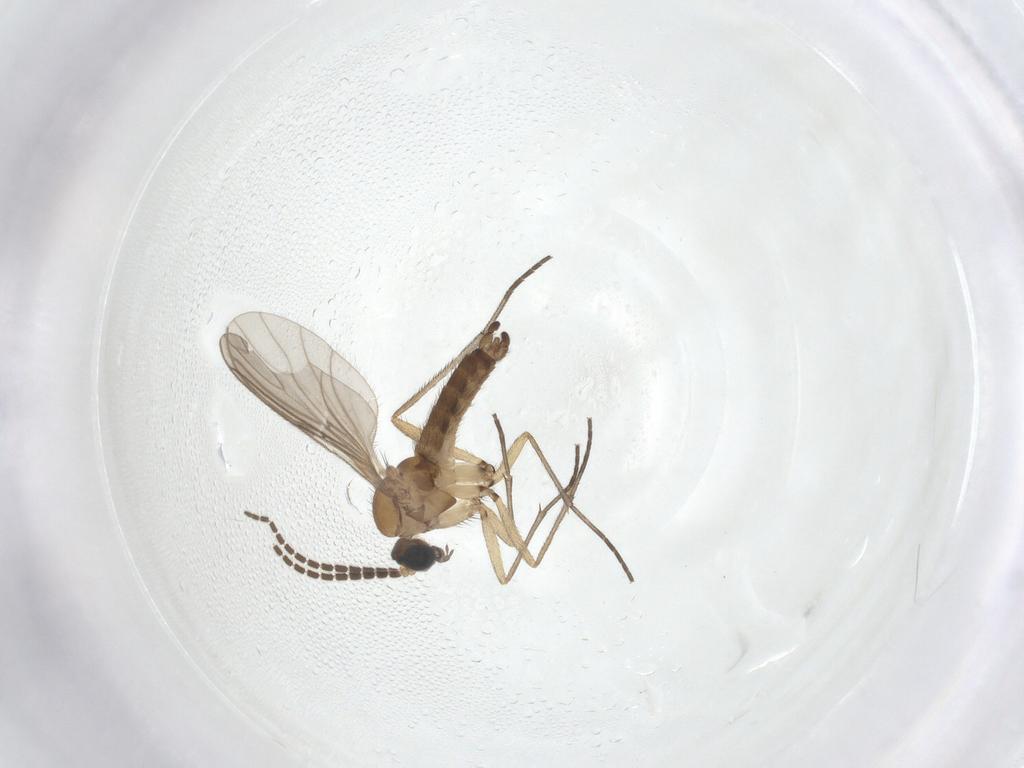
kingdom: Animalia
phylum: Arthropoda
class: Insecta
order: Diptera
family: Sciaridae
